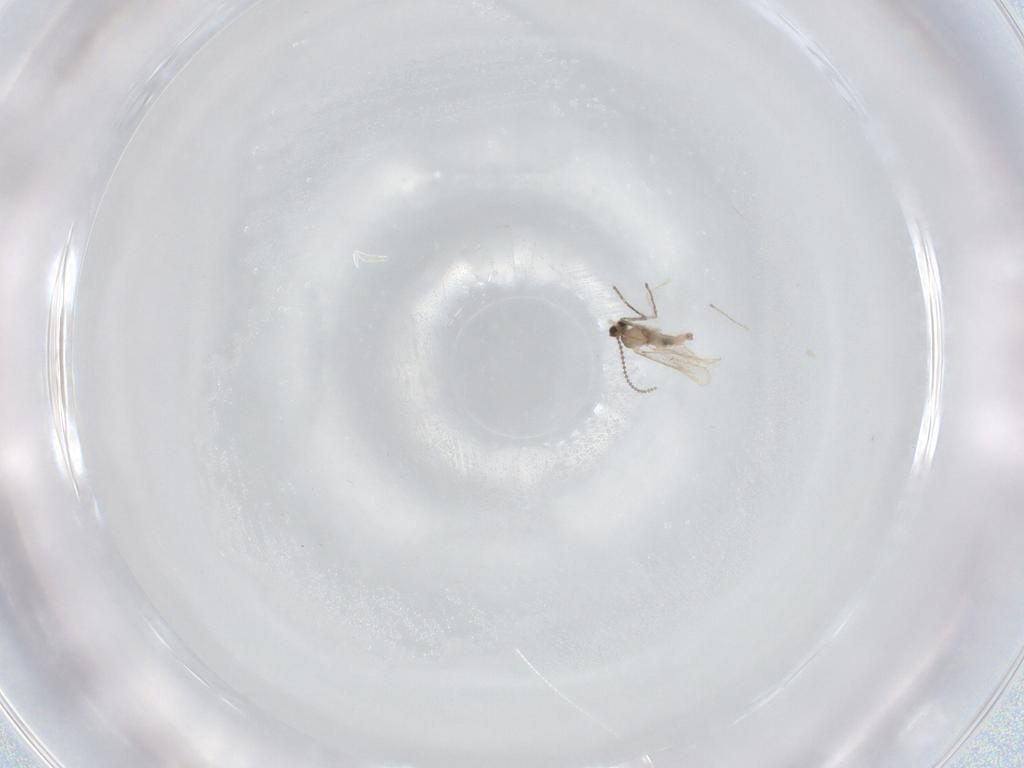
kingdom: Animalia
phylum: Arthropoda
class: Insecta
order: Diptera
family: Cecidomyiidae
